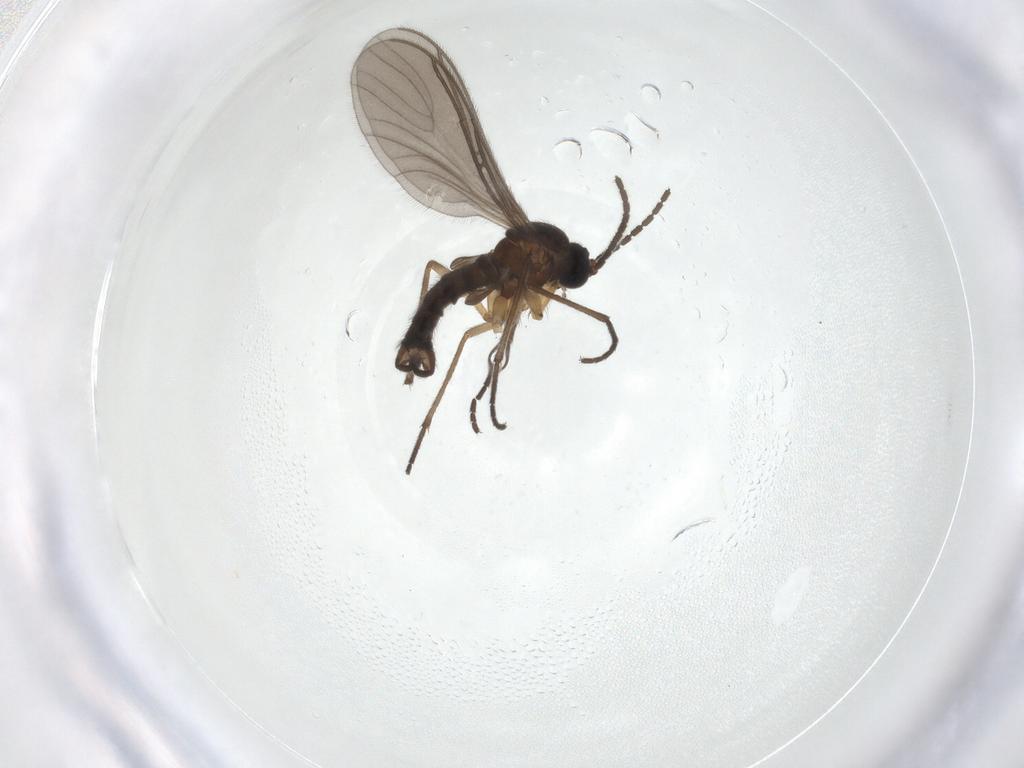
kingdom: Animalia
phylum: Arthropoda
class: Insecta
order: Diptera
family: Sciaridae
